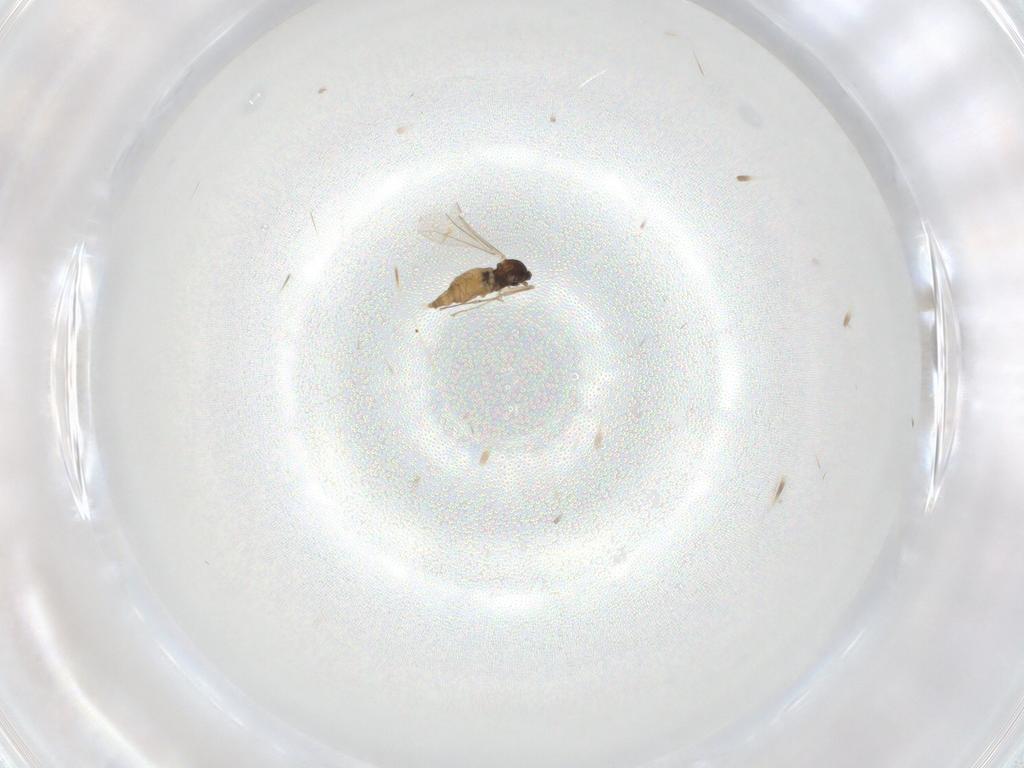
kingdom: Animalia
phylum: Arthropoda
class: Insecta
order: Diptera
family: Cecidomyiidae
